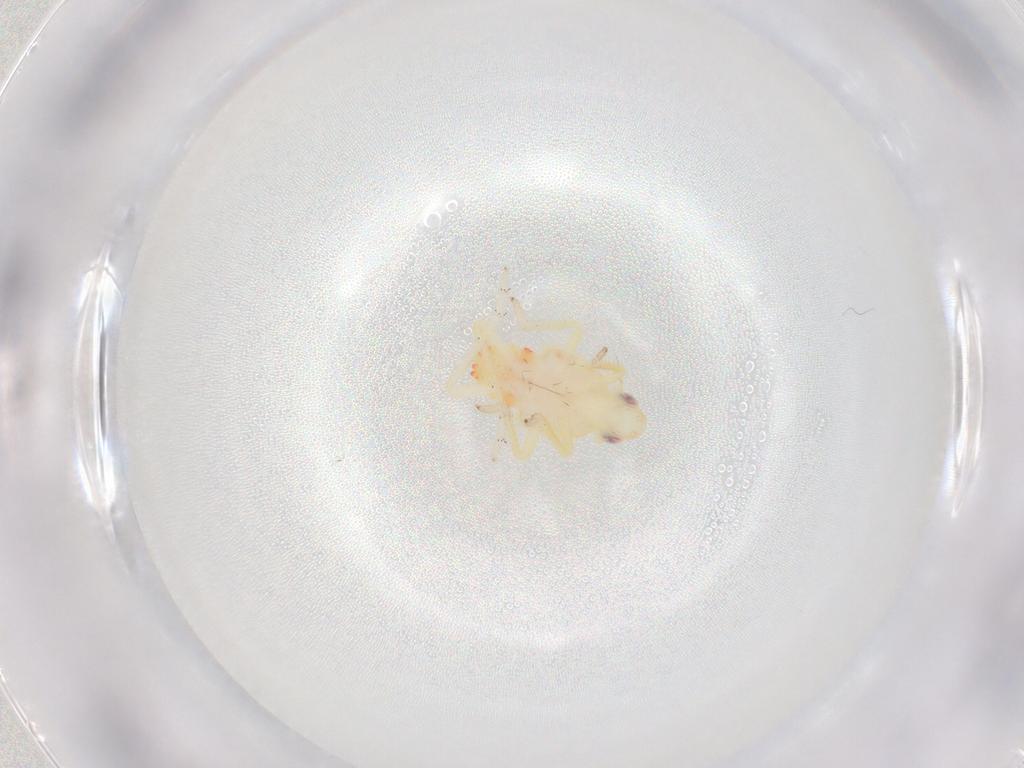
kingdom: Animalia
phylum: Arthropoda
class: Insecta
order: Hemiptera
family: Tropiduchidae
